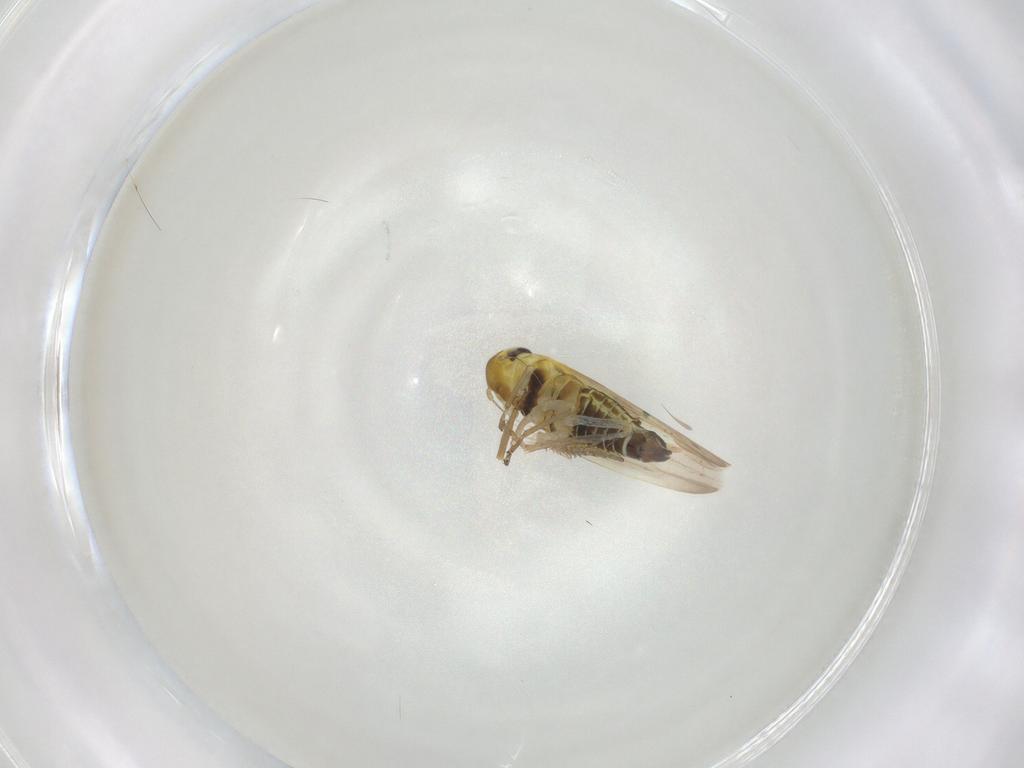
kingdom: Animalia
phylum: Arthropoda
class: Insecta
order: Hemiptera
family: Cicadellidae
